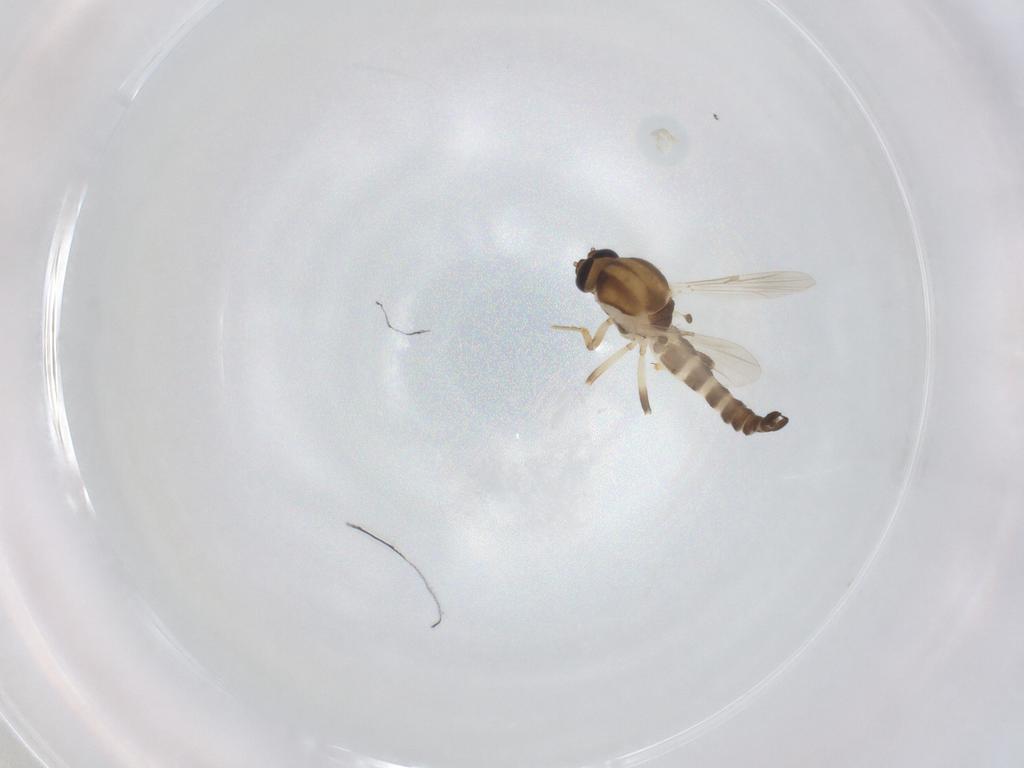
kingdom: Animalia
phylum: Arthropoda
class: Insecta
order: Diptera
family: Ceratopogonidae
